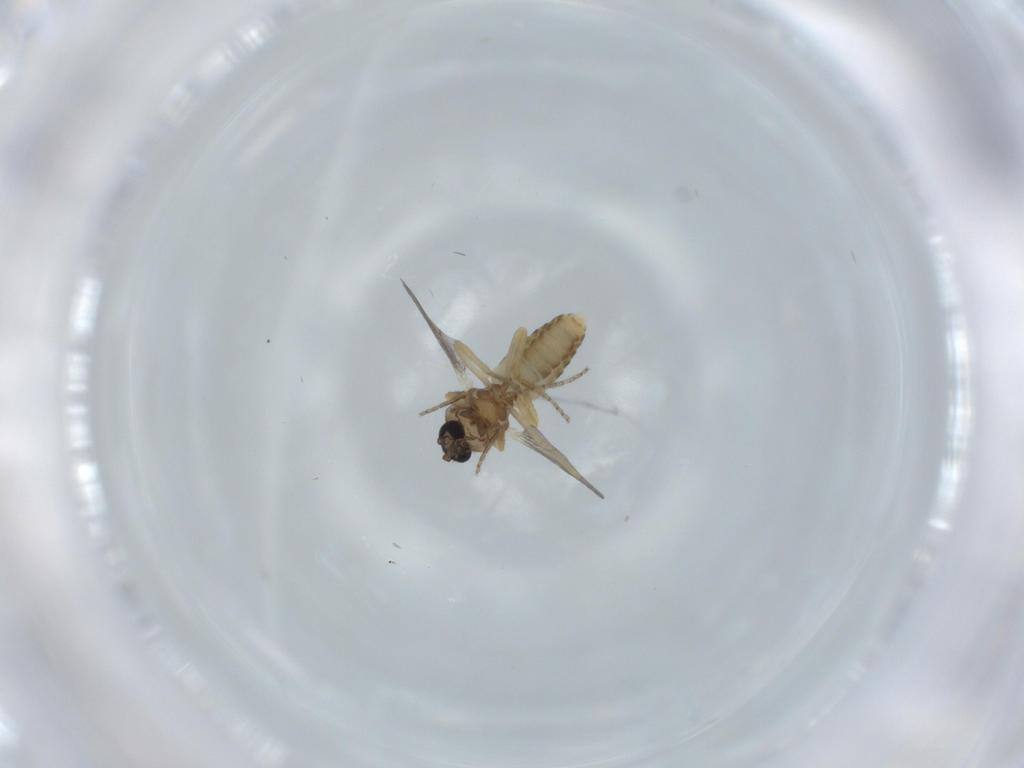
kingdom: Animalia
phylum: Arthropoda
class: Insecta
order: Diptera
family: Ceratopogonidae
